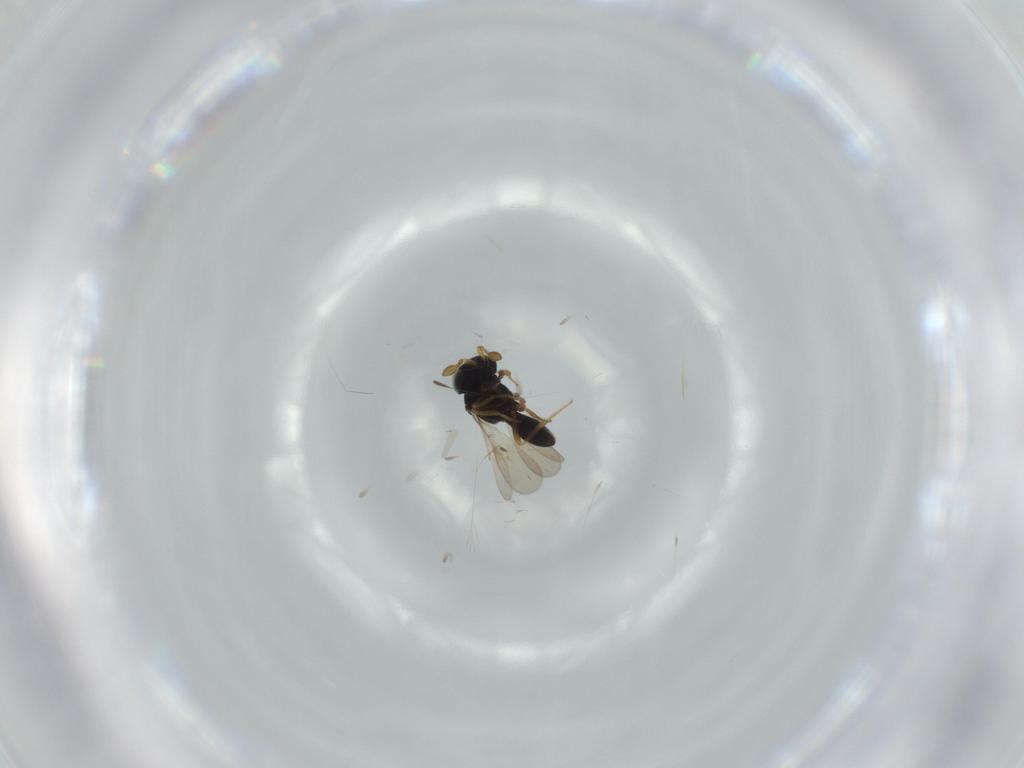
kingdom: Animalia
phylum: Arthropoda
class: Insecta
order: Hymenoptera
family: Scelionidae
